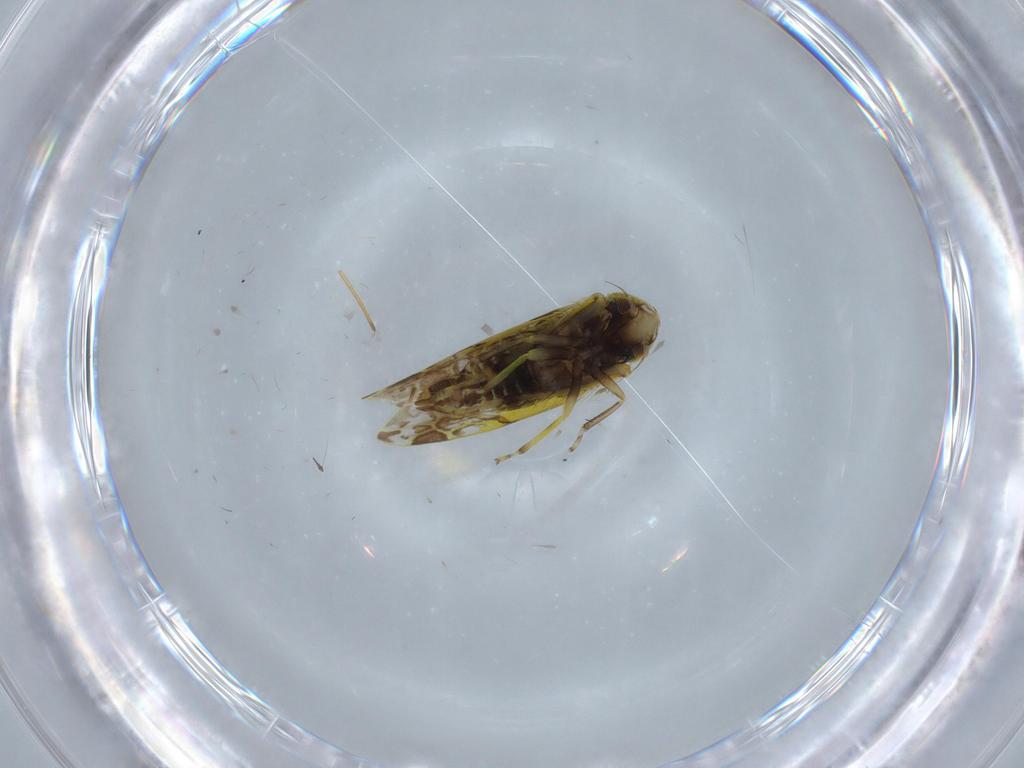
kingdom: Animalia
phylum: Arthropoda
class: Insecta
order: Hemiptera
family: Cicadellidae
